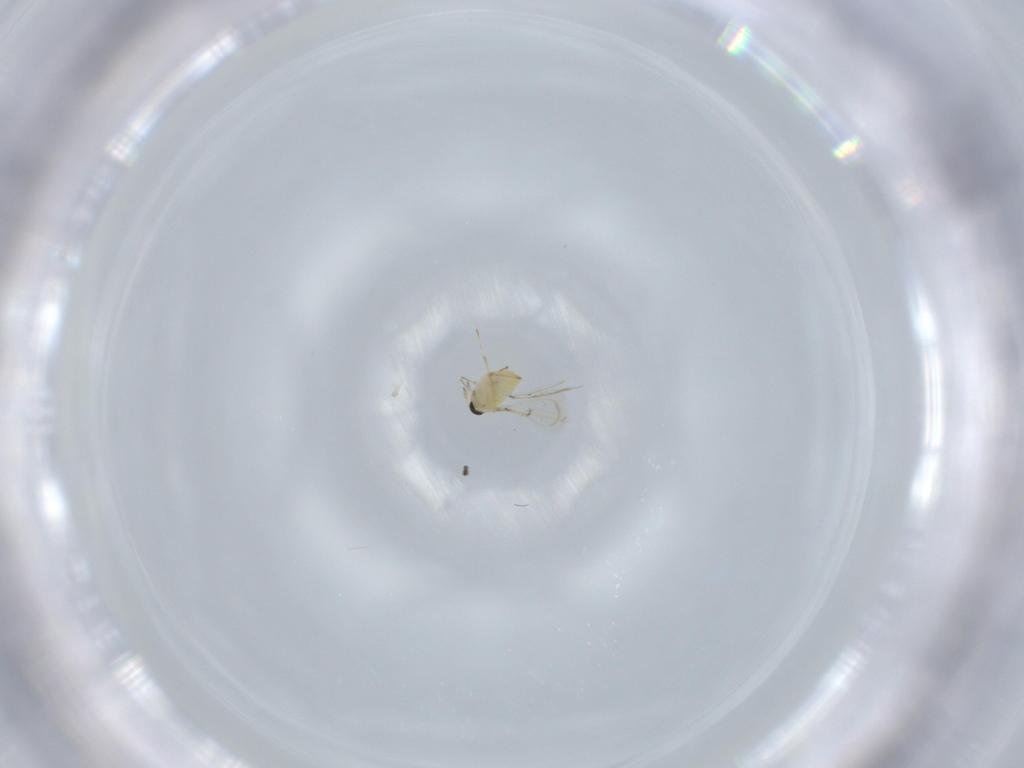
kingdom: Animalia
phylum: Arthropoda
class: Insecta
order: Hymenoptera
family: Trichogrammatidae
